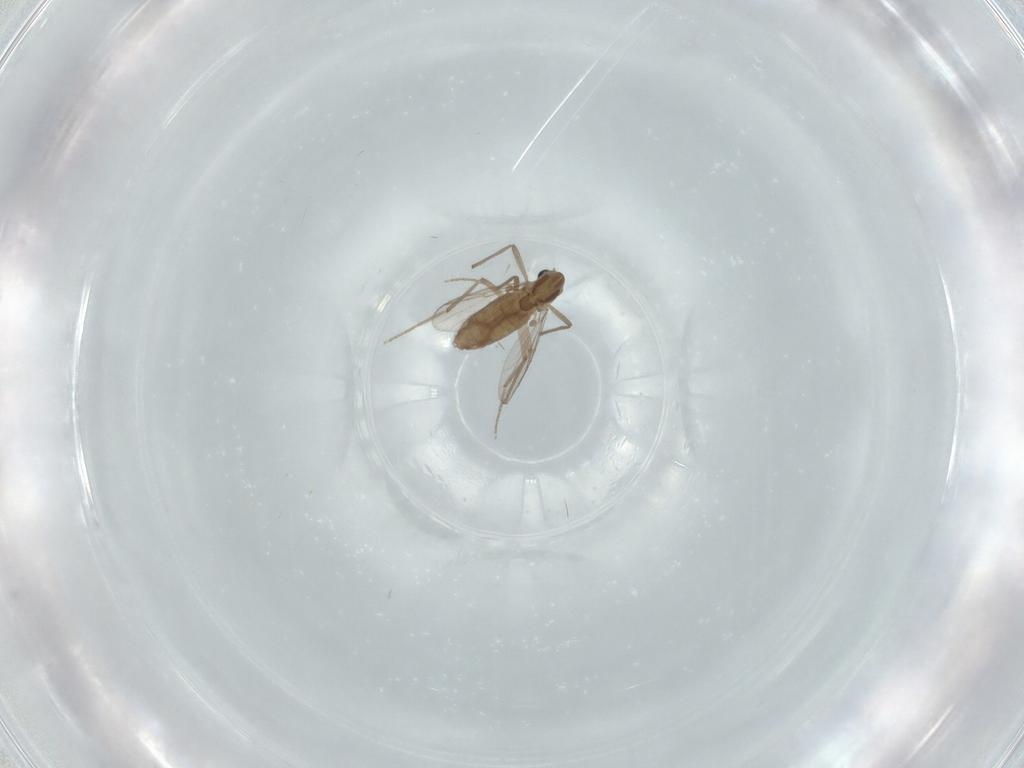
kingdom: Animalia
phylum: Arthropoda
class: Insecta
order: Diptera
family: Chironomidae
